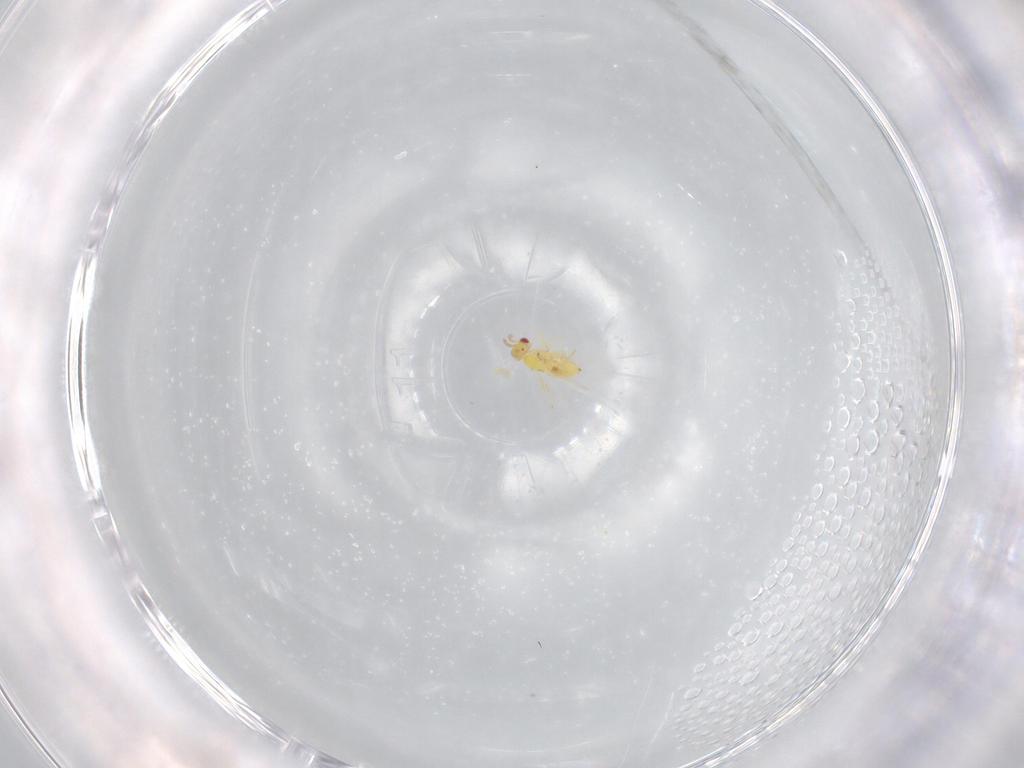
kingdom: Animalia
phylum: Arthropoda
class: Insecta
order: Hymenoptera
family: Trichogrammatidae
